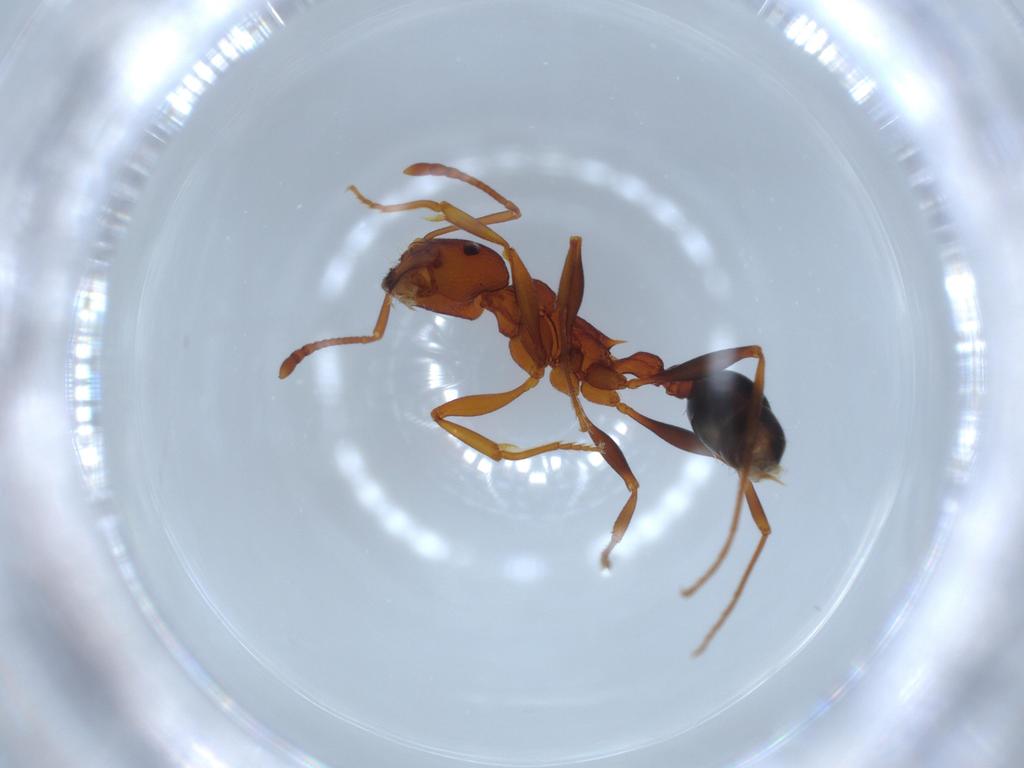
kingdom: Animalia
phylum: Arthropoda
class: Insecta
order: Hymenoptera
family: Formicidae
